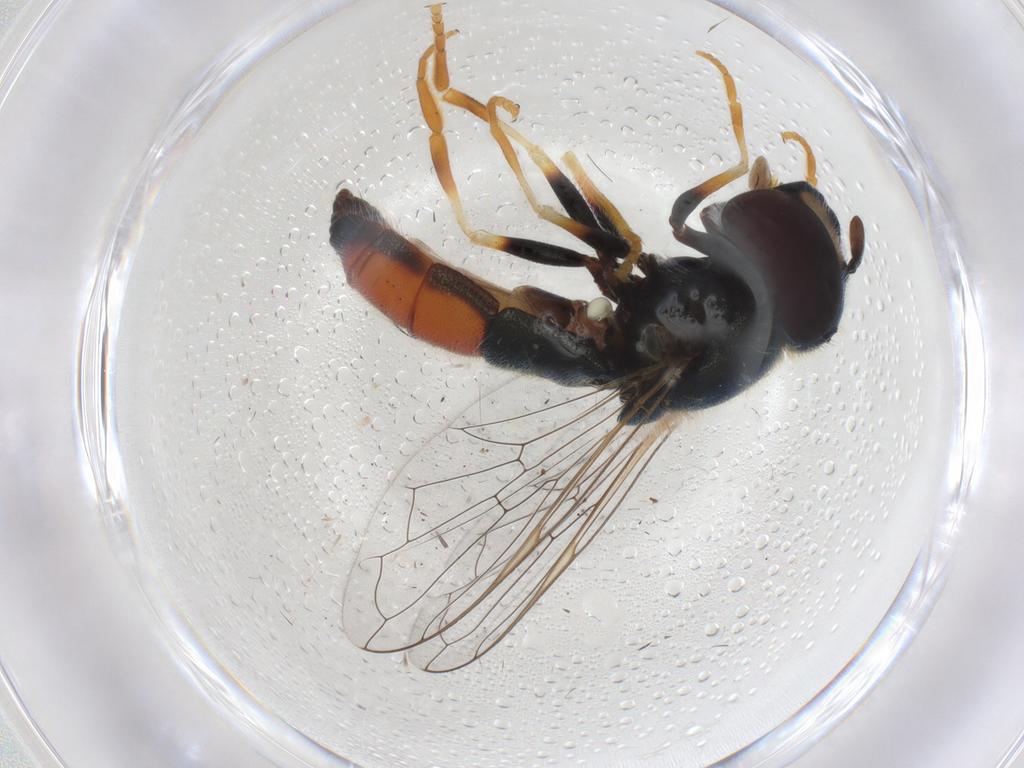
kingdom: Animalia
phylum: Arthropoda
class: Insecta
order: Diptera
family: Syrphidae
